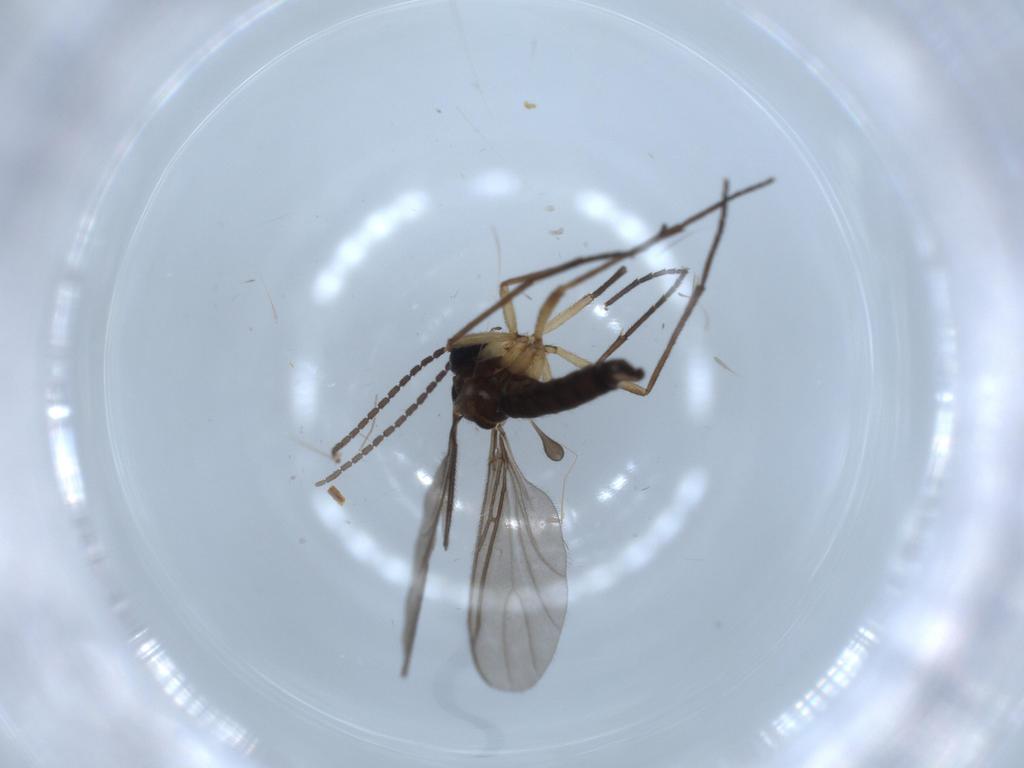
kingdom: Animalia
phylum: Arthropoda
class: Insecta
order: Diptera
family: Sciaridae
